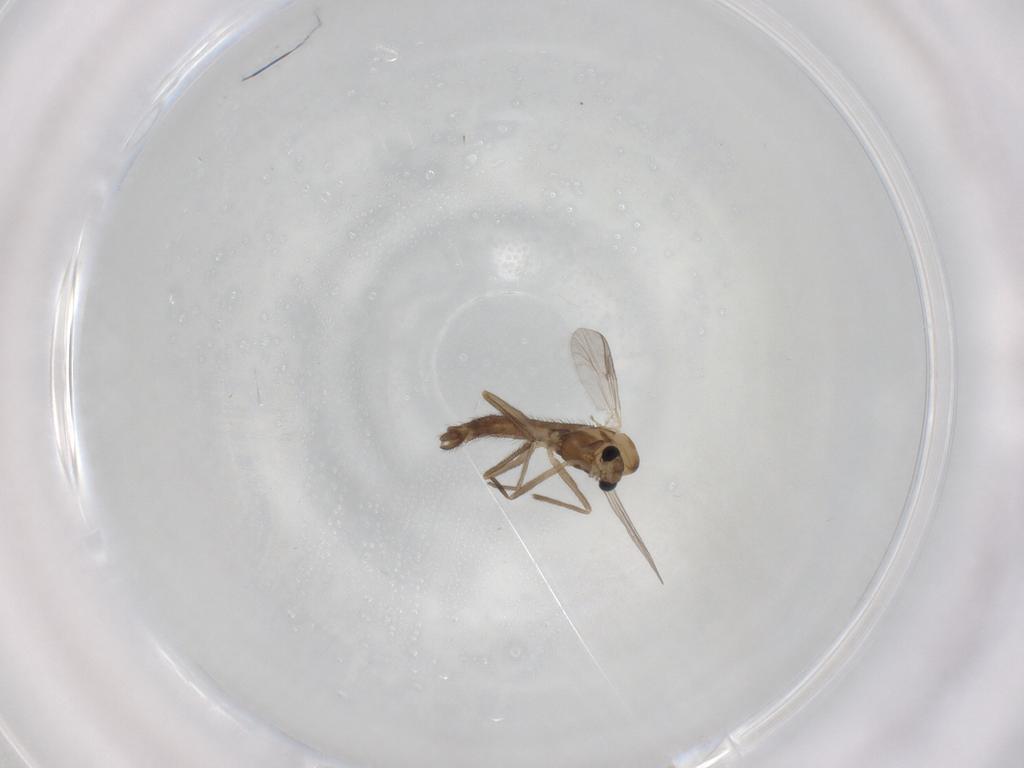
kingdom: Animalia
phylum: Arthropoda
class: Insecta
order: Diptera
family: Chironomidae
